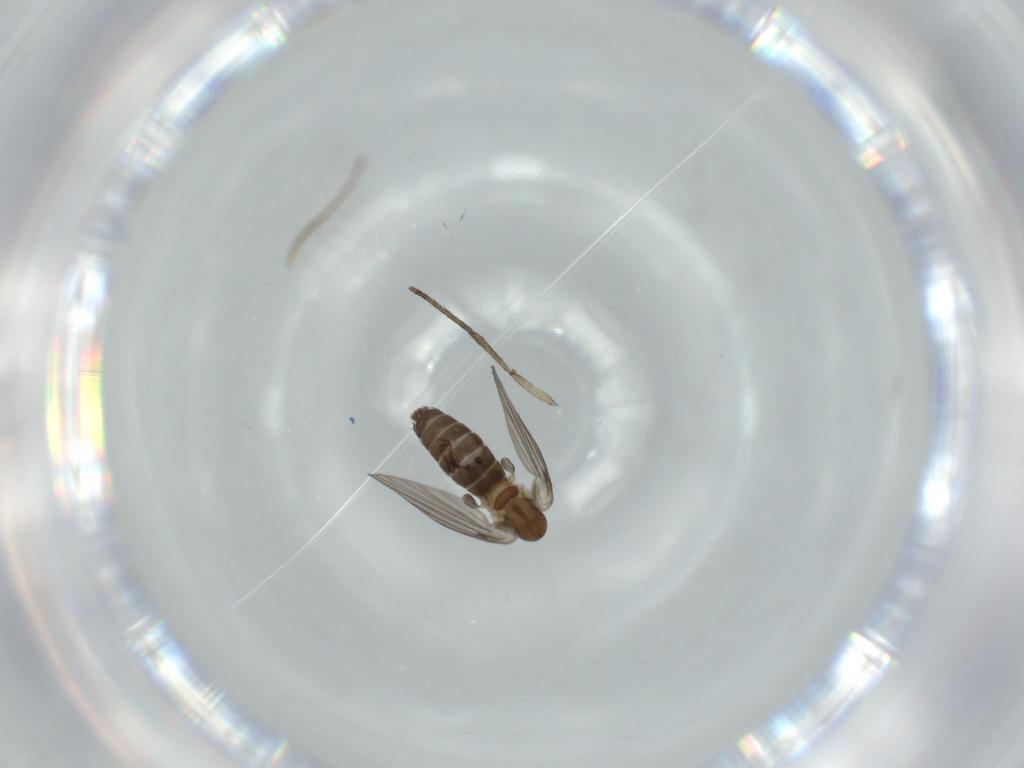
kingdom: Animalia
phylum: Arthropoda
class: Insecta
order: Diptera
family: Psychodidae
